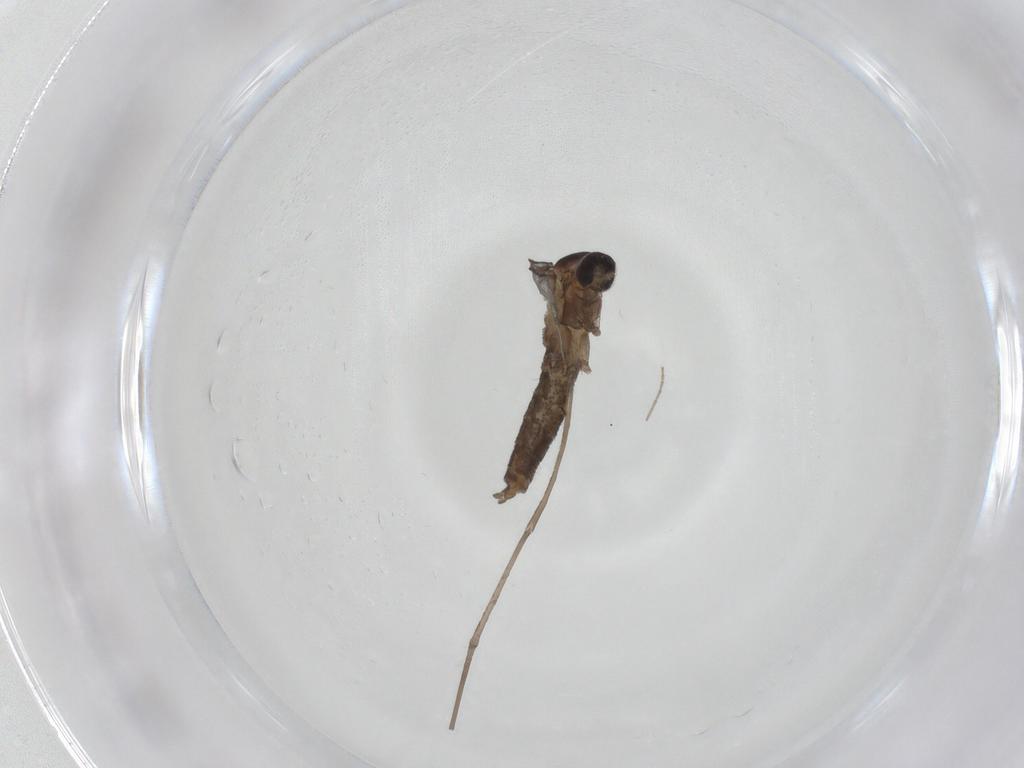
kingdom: Animalia
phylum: Arthropoda
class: Insecta
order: Diptera
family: Cecidomyiidae
